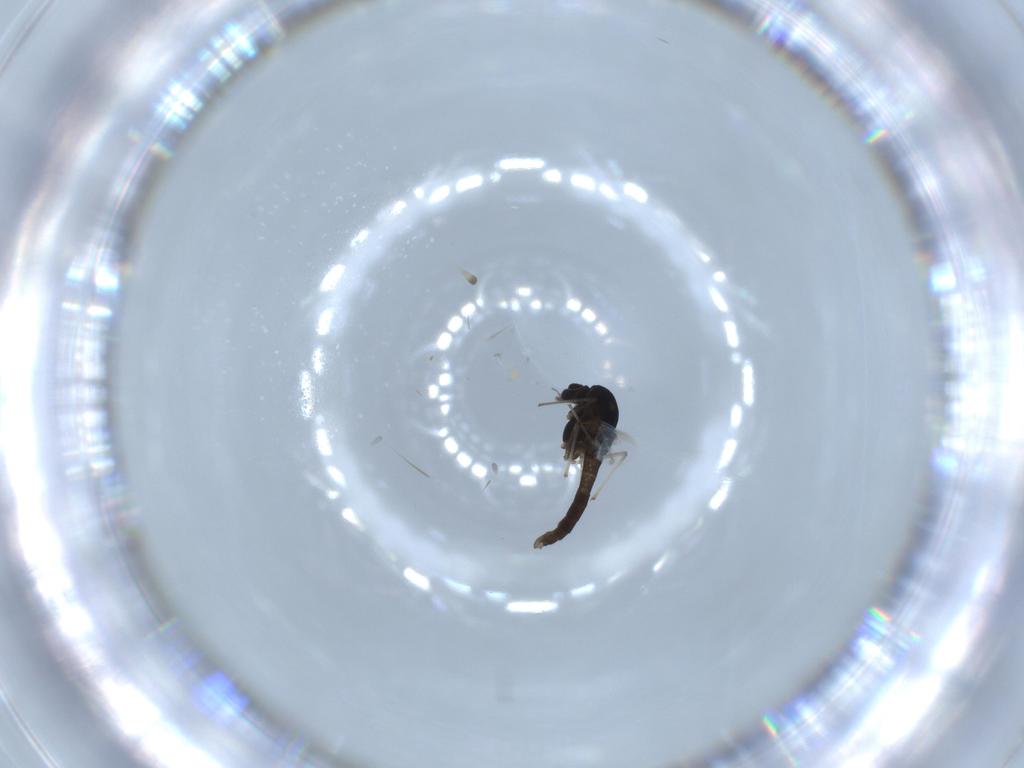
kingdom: Animalia
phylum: Arthropoda
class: Insecta
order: Diptera
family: Chironomidae
